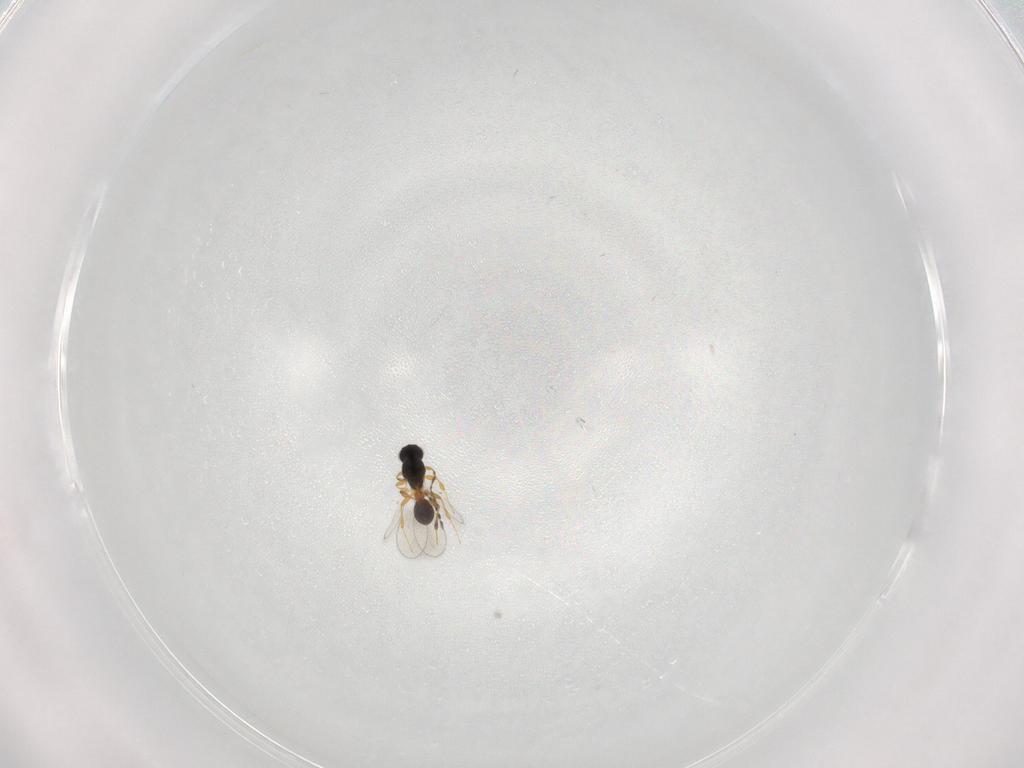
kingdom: Animalia
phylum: Arthropoda
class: Insecta
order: Hymenoptera
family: Platygastridae
